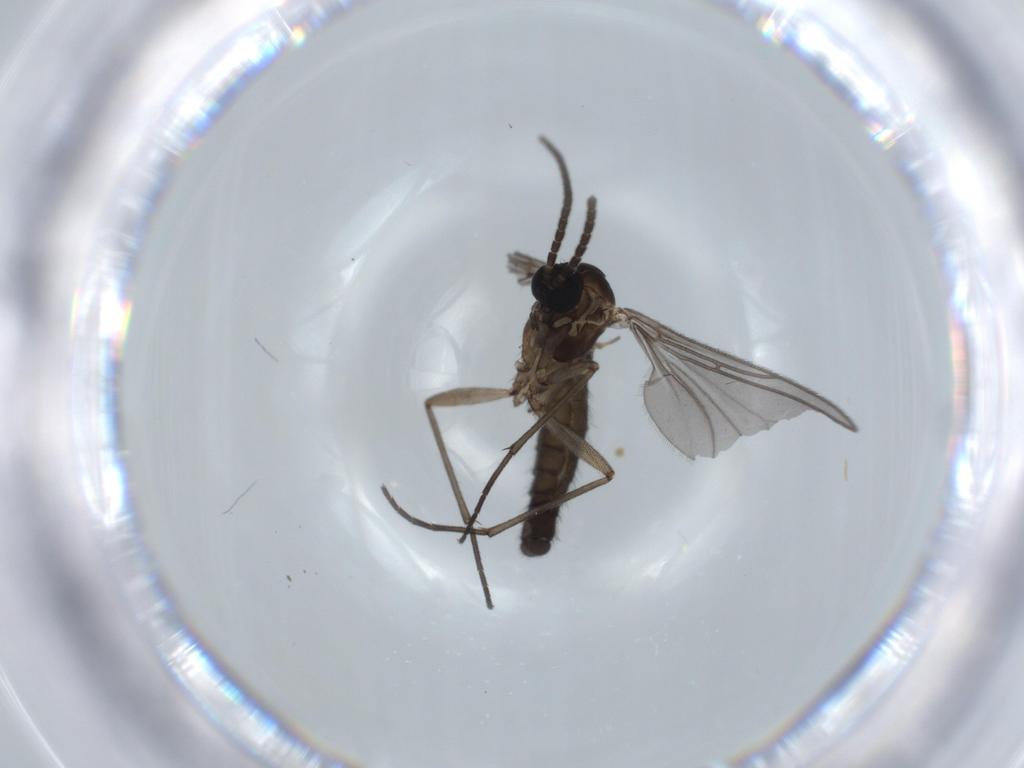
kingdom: Animalia
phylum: Arthropoda
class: Insecta
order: Diptera
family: Sciaridae
